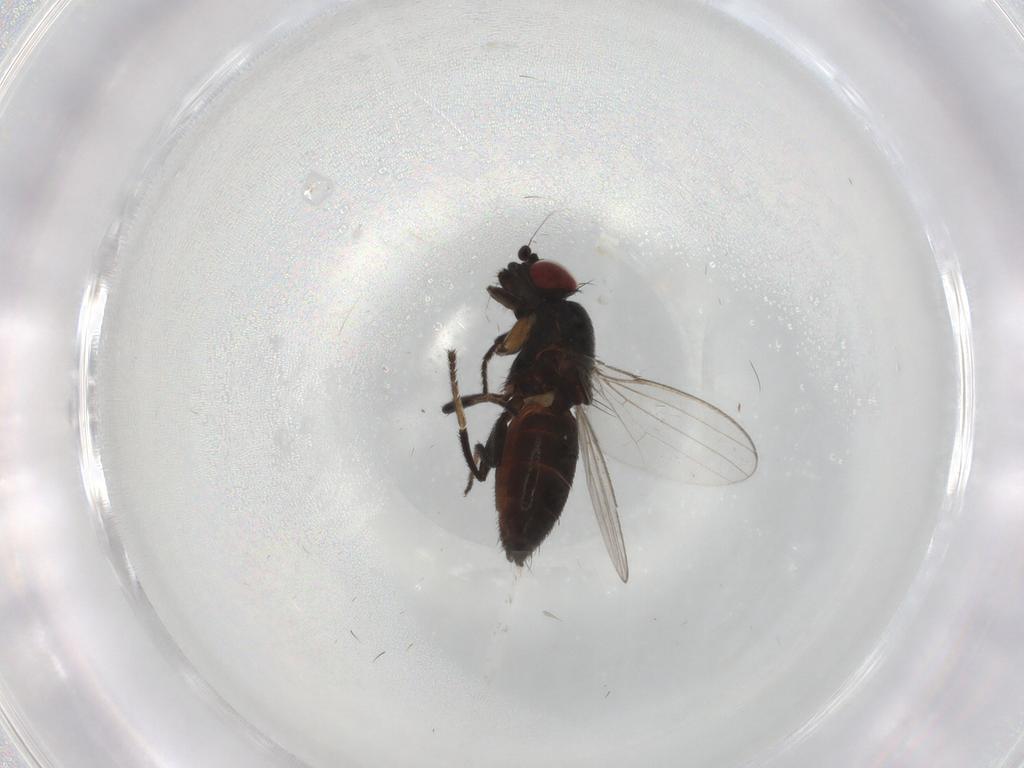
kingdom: Animalia
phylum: Arthropoda
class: Insecta
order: Diptera
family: Milichiidae
